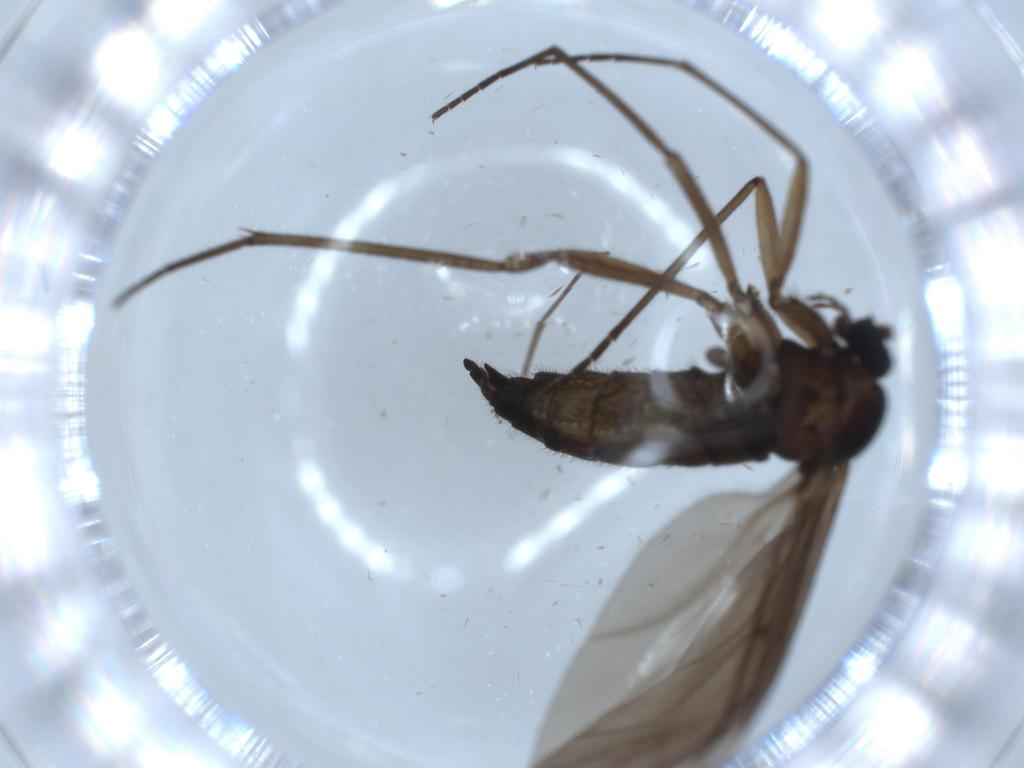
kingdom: Animalia
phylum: Arthropoda
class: Insecta
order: Diptera
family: Sciaridae
